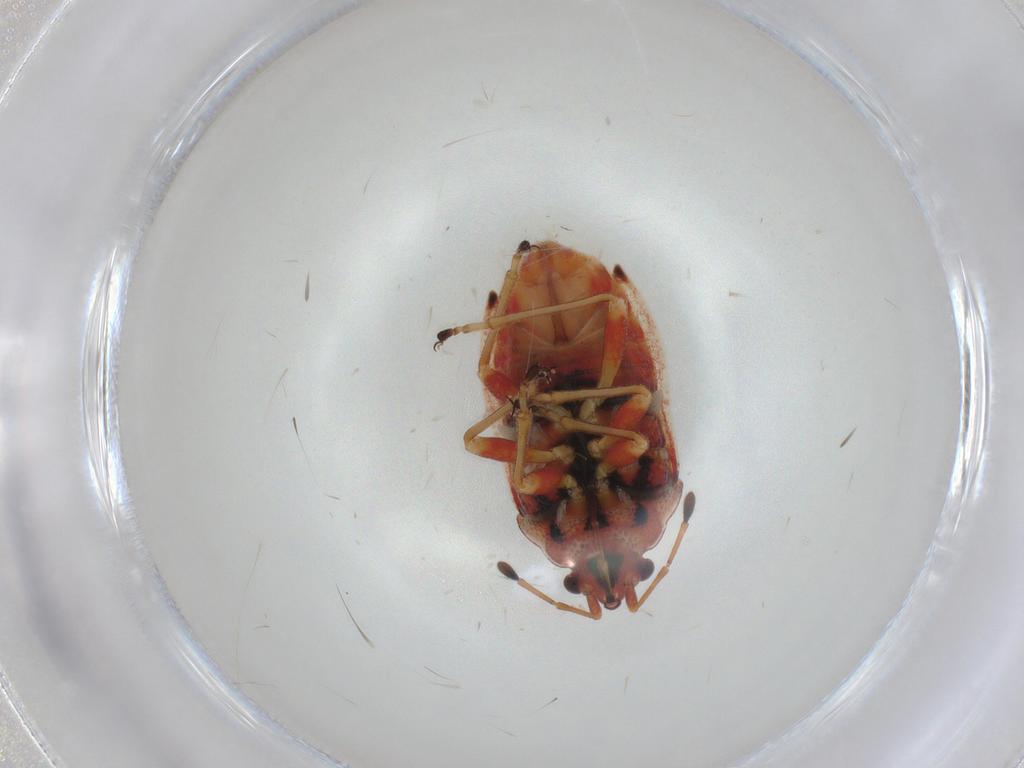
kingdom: Animalia
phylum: Arthropoda
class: Insecta
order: Hemiptera
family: Lygaeidae
